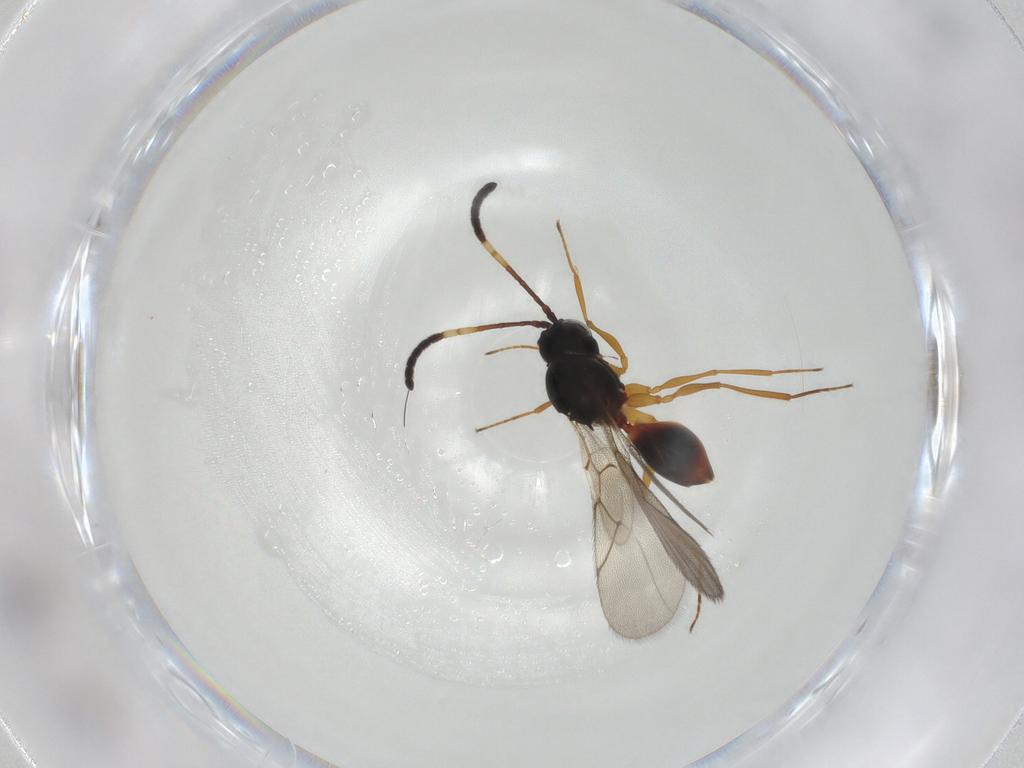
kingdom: Animalia
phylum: Arthropoda
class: Insecta
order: Hymenoptera
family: Figitidae
